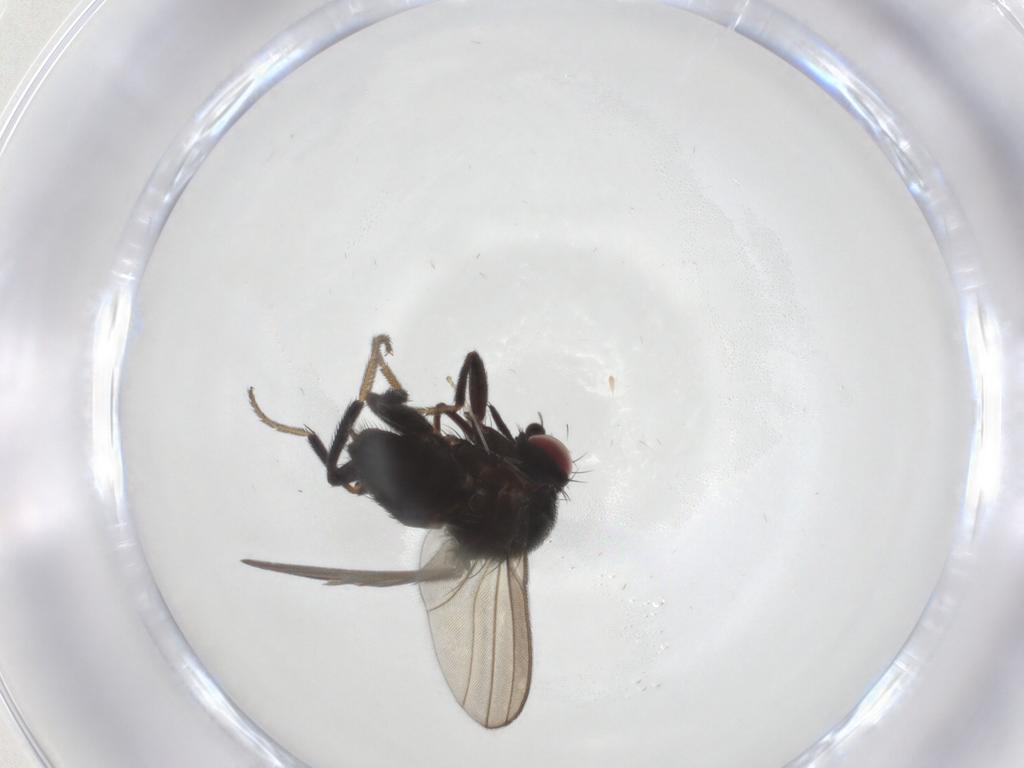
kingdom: Animalia
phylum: Arthropoda
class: Insecta
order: Diptera
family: Milichiidae
